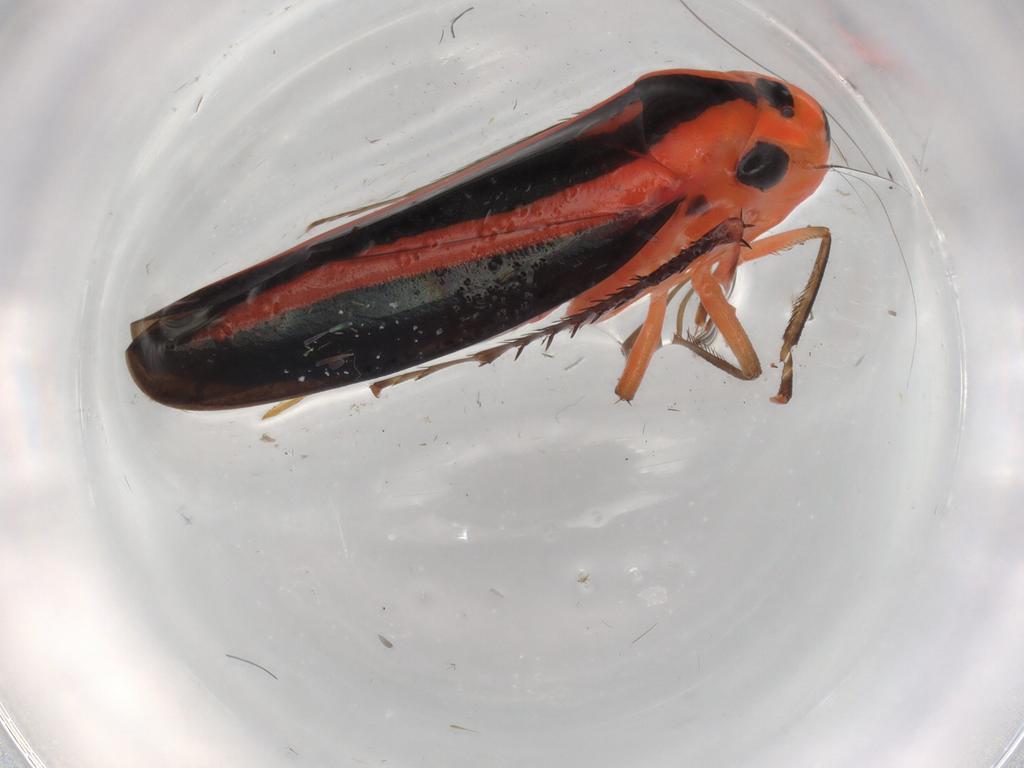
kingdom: Animalia
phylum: Arthropoda
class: Insecta
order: Hemiptera
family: Cicadellidae
